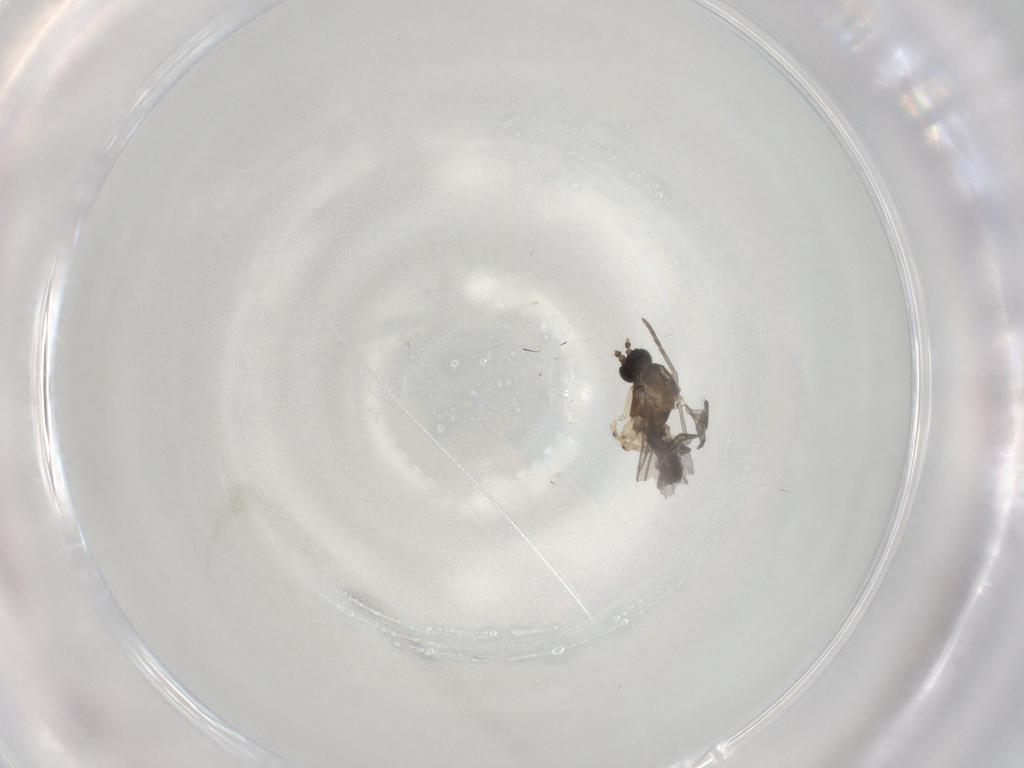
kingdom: Animalia
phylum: Arthropoda
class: Insecta
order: Diptera
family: Sciaridae
